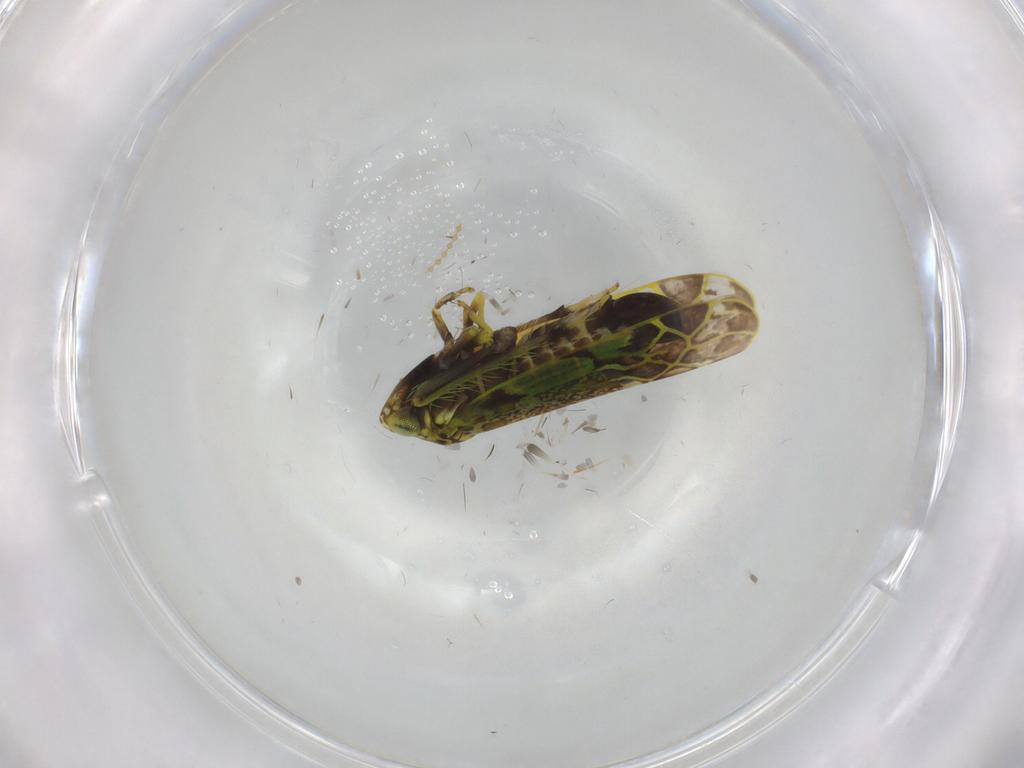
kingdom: Animalia
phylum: Arthropoda
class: Insecta
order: Hemiptera
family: Cicadellidae
